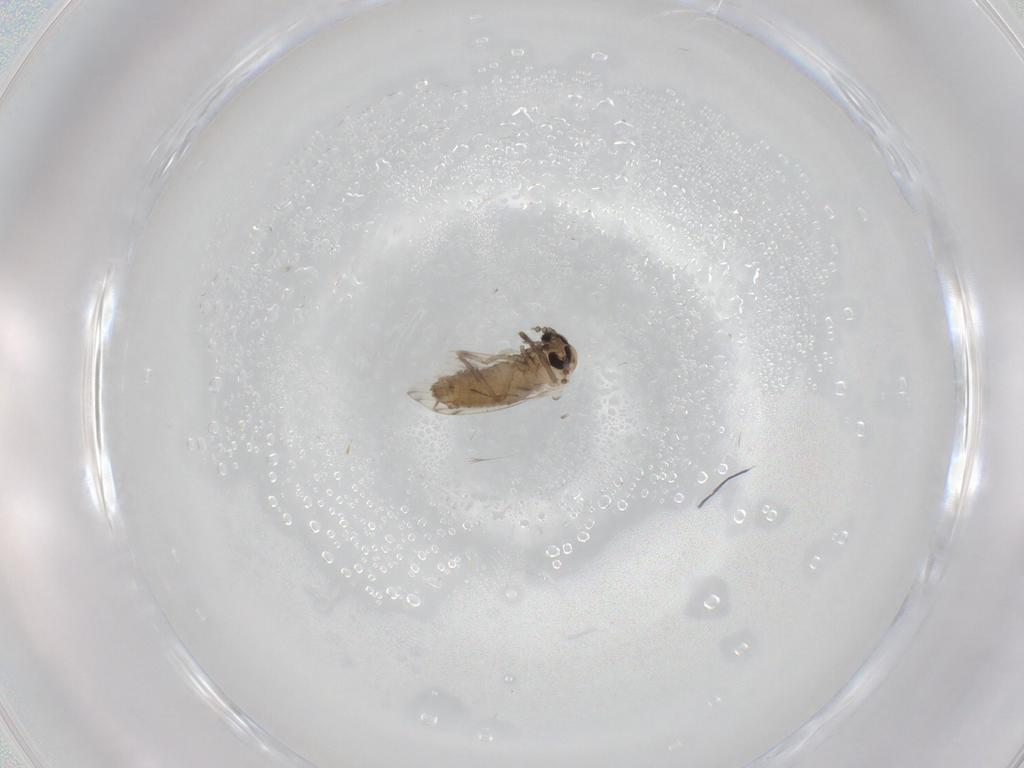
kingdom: Animalia
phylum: Arthropoda
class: Insecta
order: Diptera
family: Psychodidae
